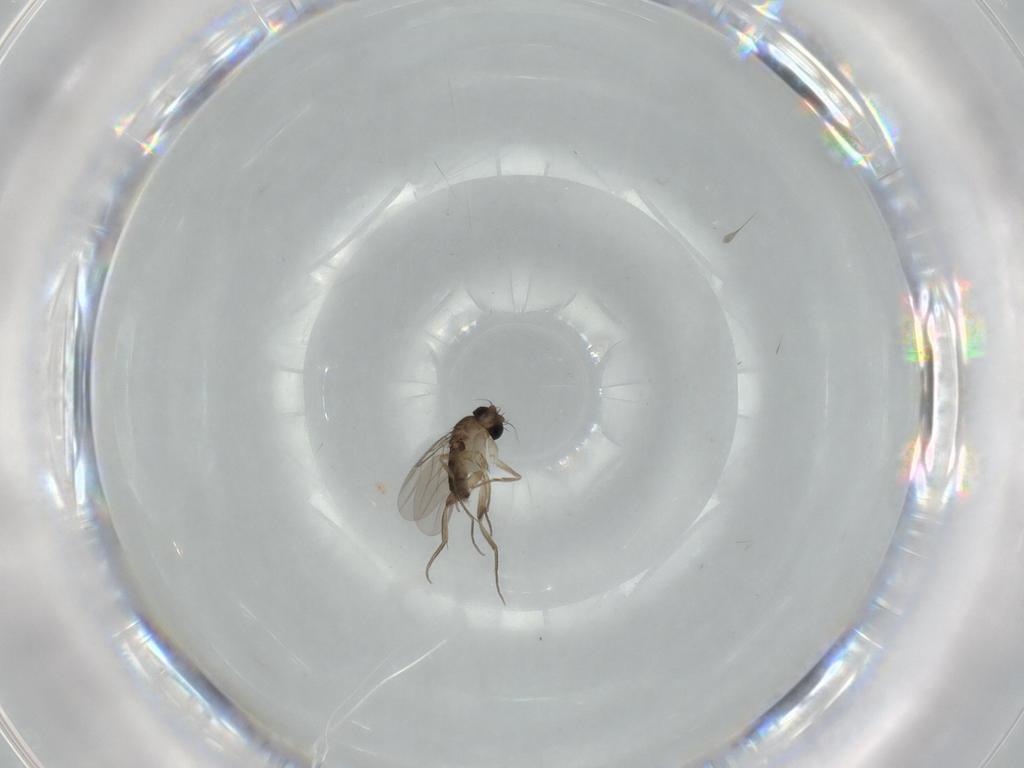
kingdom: Animalia
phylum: Arthropoda
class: Insecta
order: Diptera
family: Phoridae
